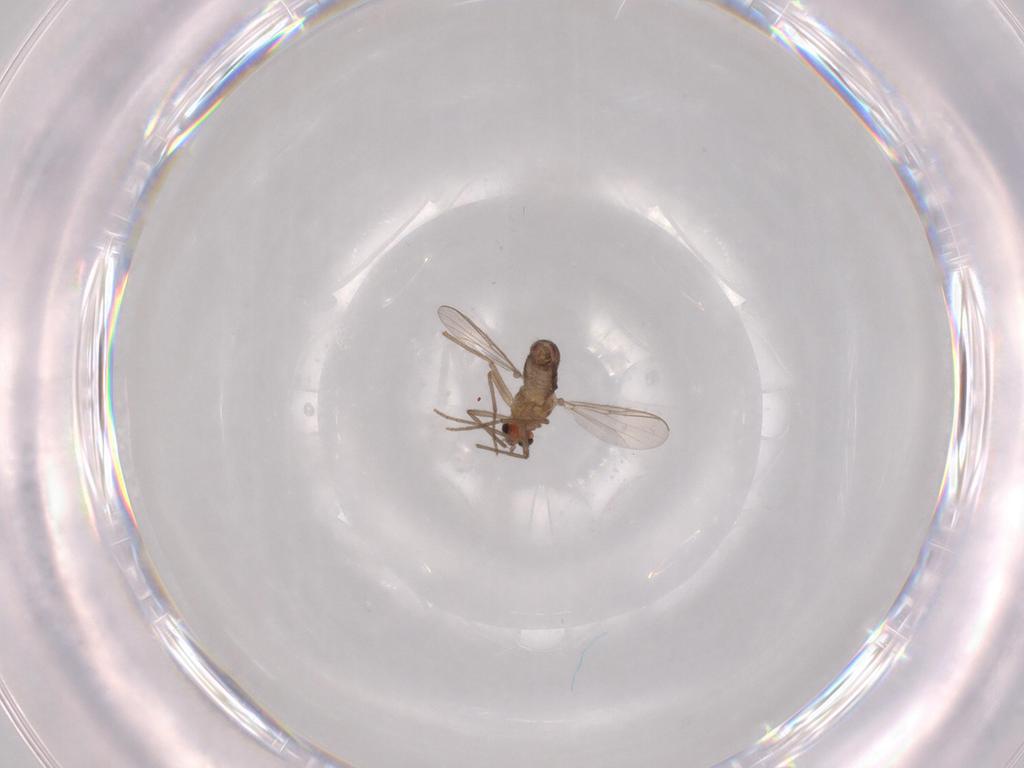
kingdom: Animalia
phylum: Arthropoda
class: Insecta
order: Diptera
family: Chironomidae
